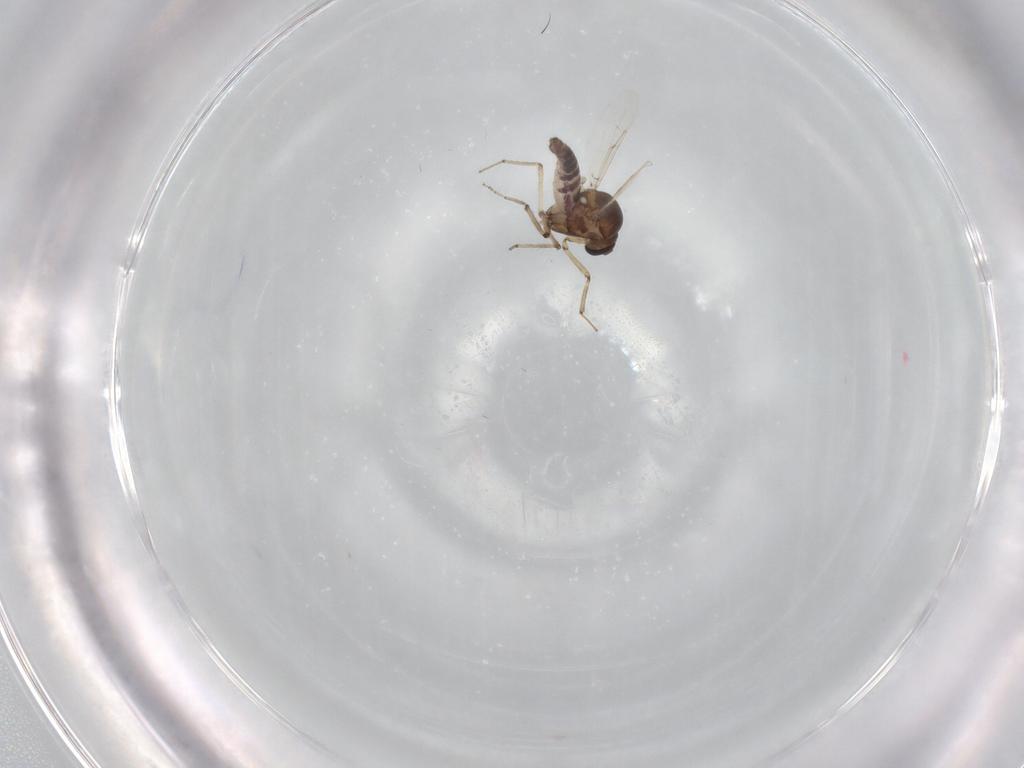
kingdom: Animalia
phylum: Arthropoda
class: Insecta
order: Diptera
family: Ceratopogonidae
